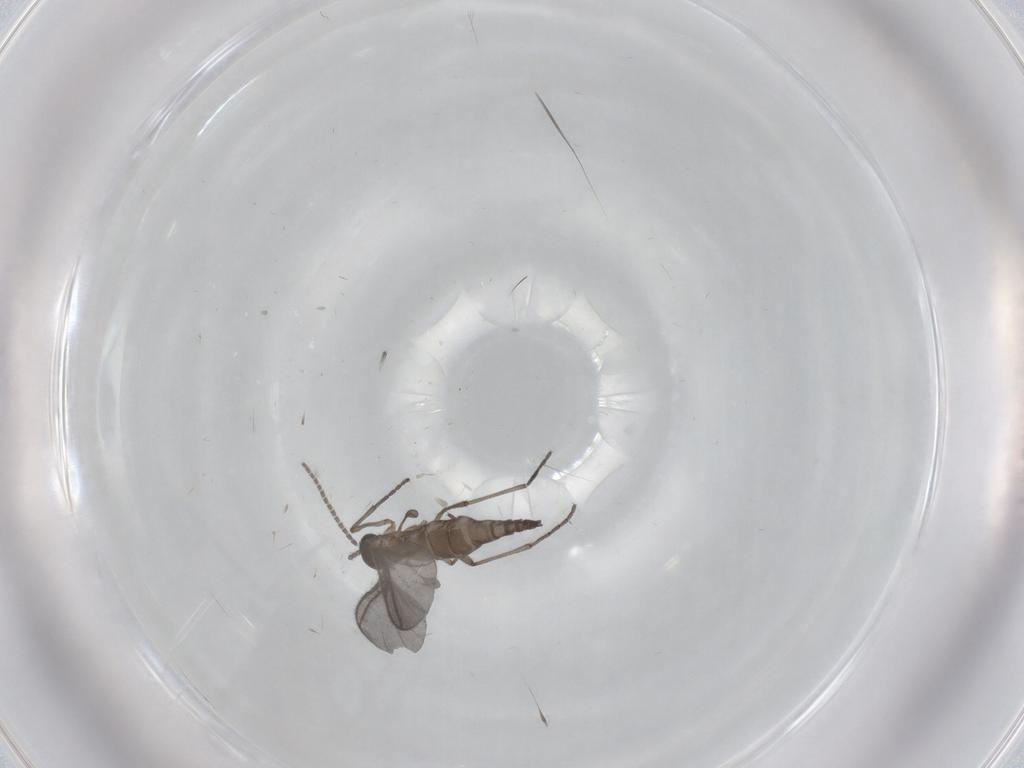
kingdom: Animalia
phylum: Arthropoda
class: Insecta
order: Diptera
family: Sciaridae
